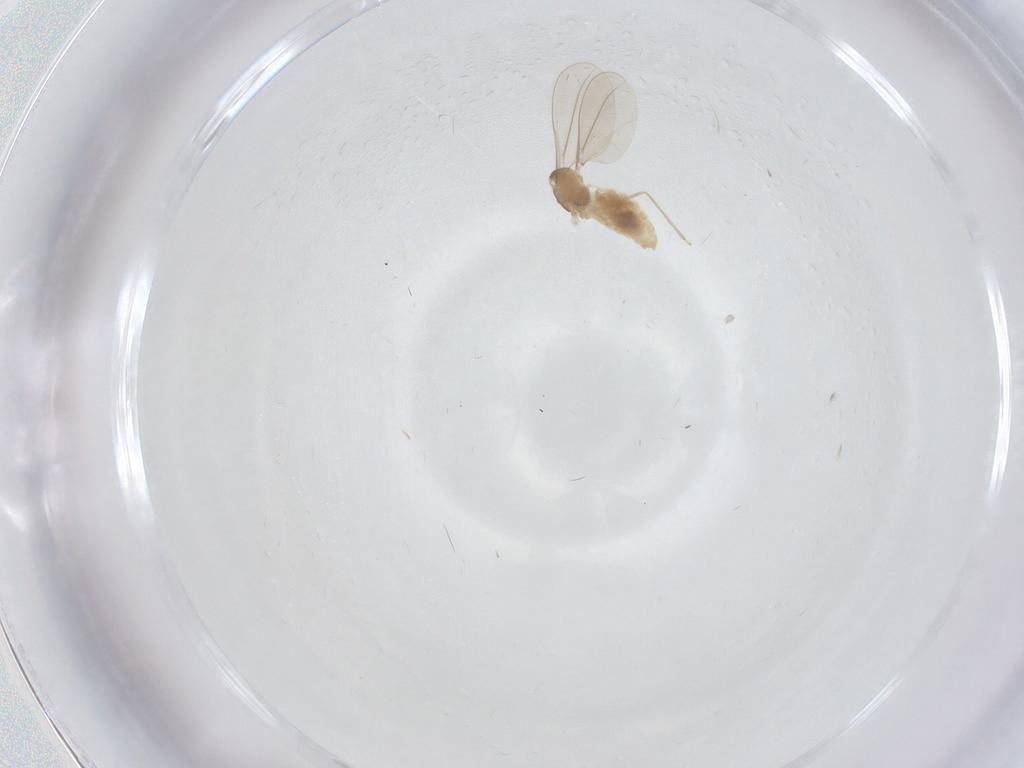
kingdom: Animalia
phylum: Arthropoda
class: Insecta
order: Diptera
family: Cecidomyiidae
